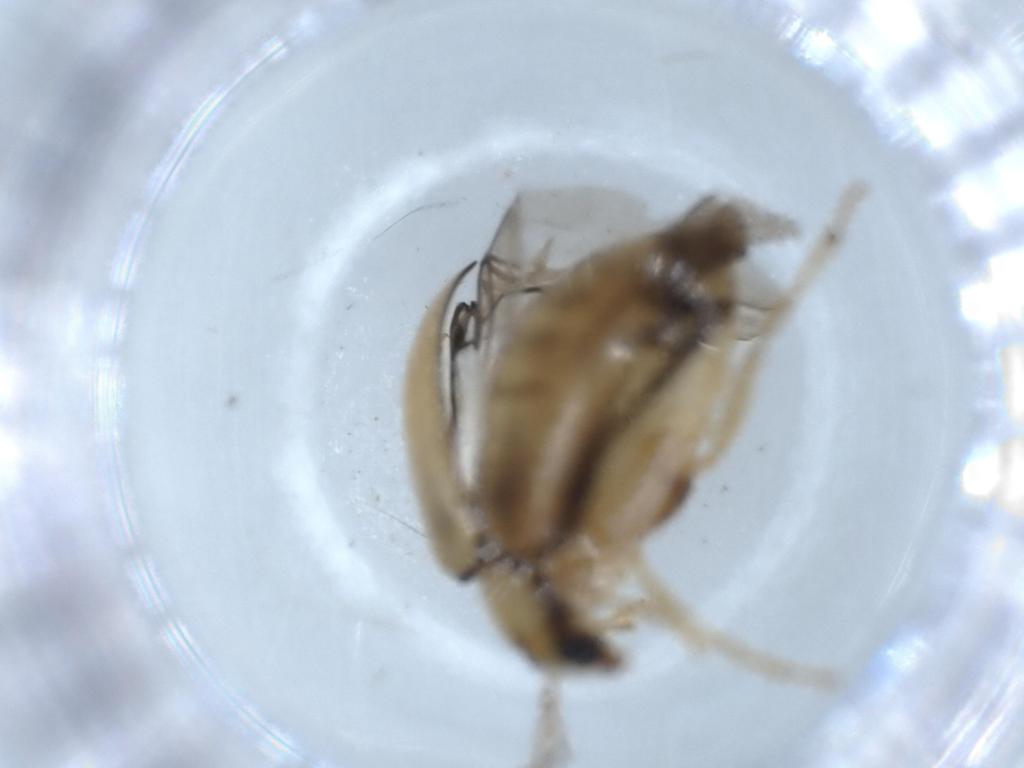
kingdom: Animalia
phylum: Arthropoda
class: Insecta
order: Coleoptera
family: Chrysomelidae
